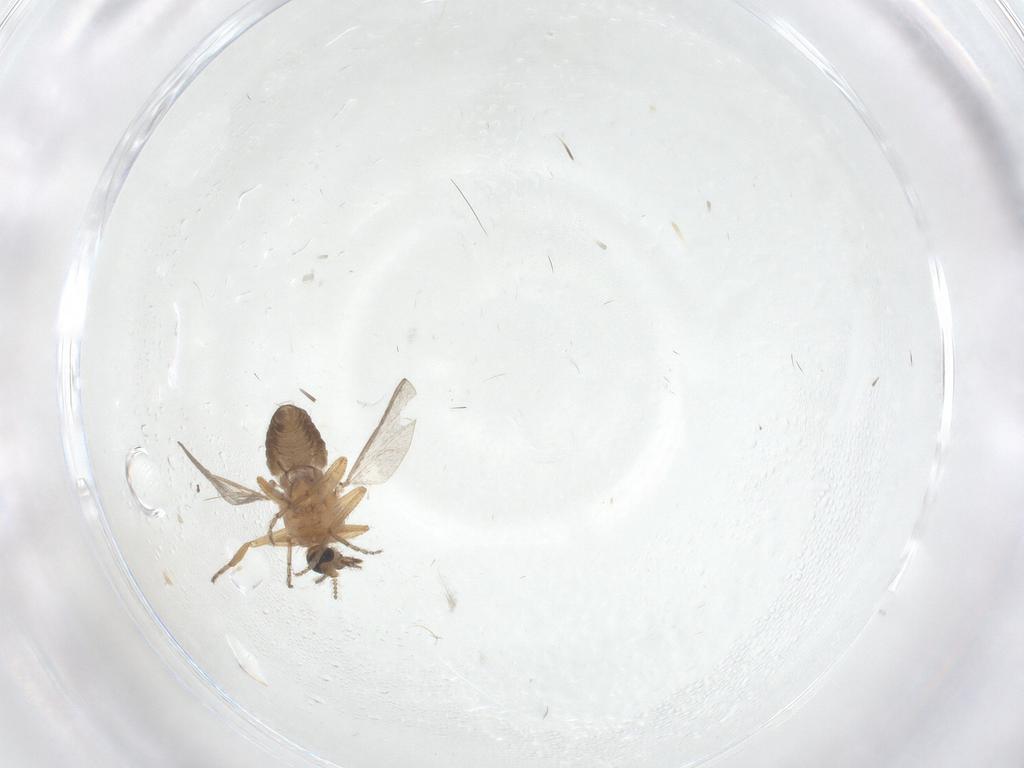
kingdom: Animalia
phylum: Arthropoda
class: Insecta
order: Diptera
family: Ceratopogonidae
